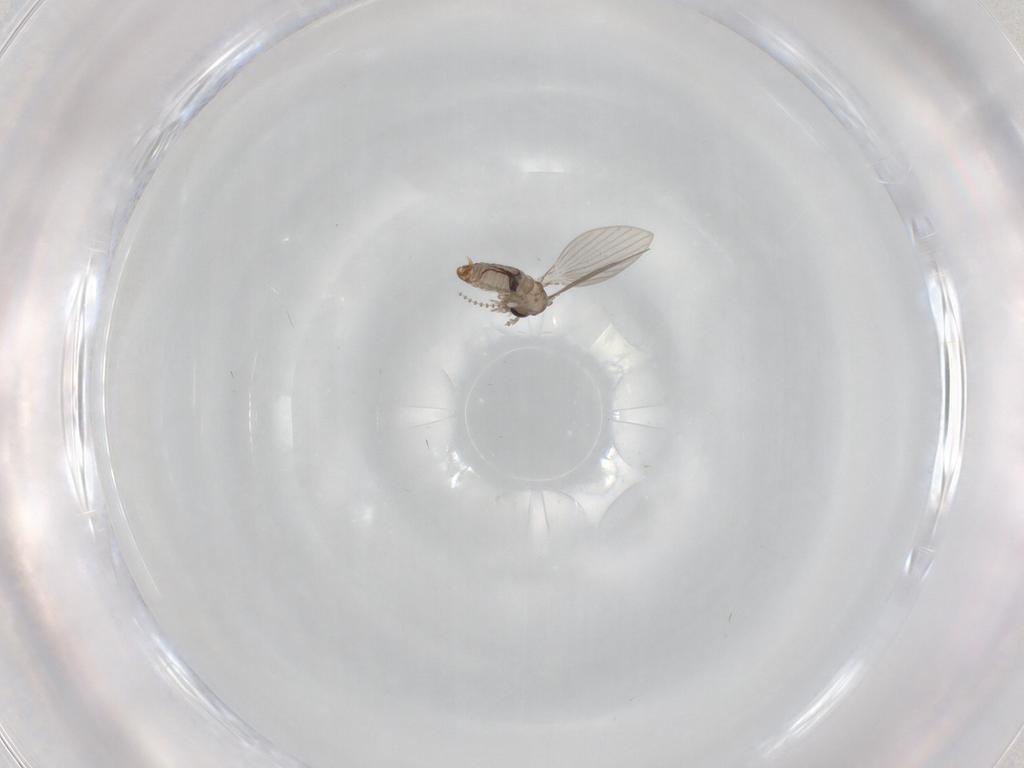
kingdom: Animalia
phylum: Arthropoda
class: Insecta
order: Diptera
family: Psychodidae
